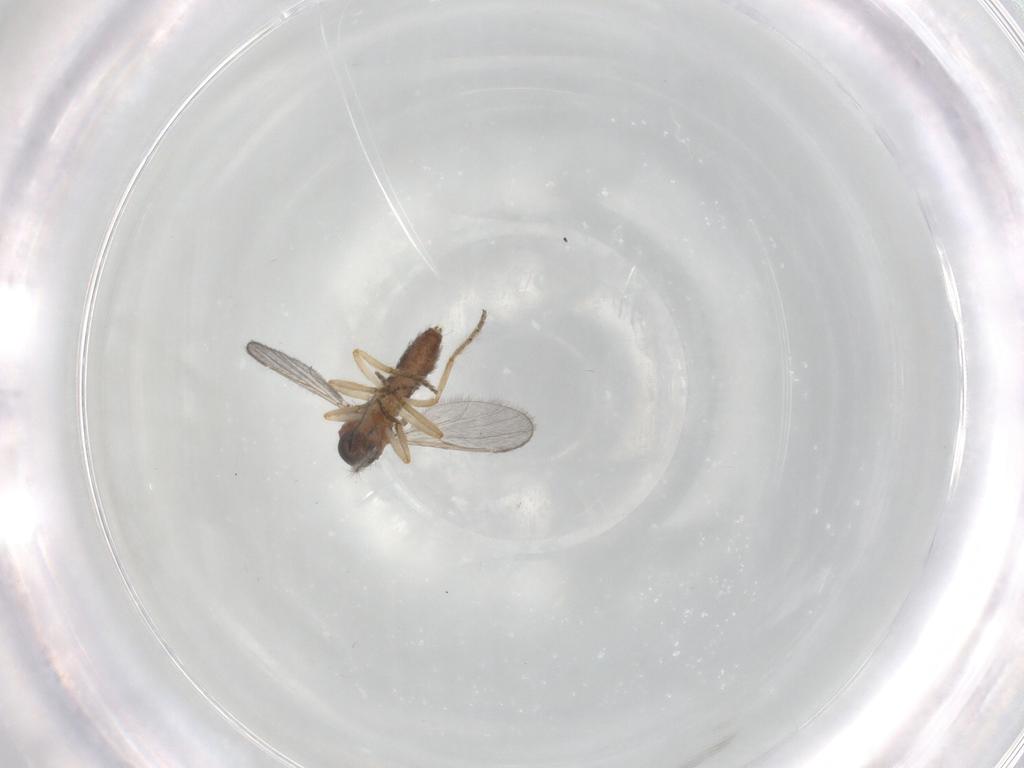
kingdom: Animalia
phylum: Arthropoda
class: Insecta
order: Diptera
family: Ceratopogonidae
